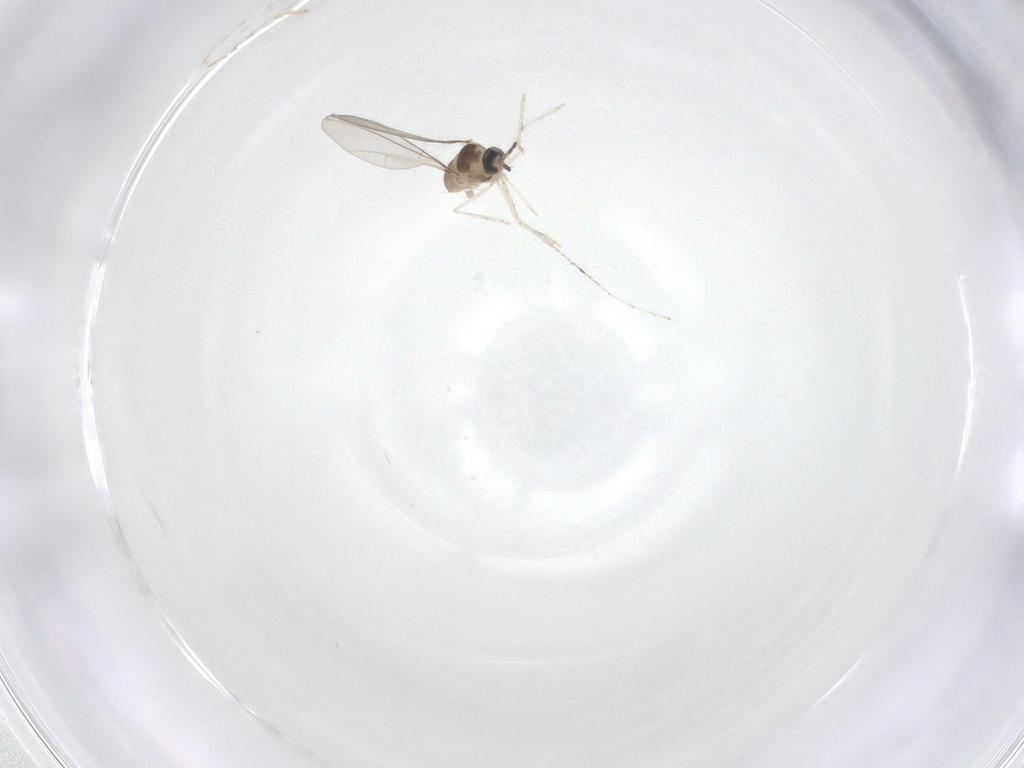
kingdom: Animalia
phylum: Arthropoda
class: Insecta
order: Diptera
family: Cecidomyiidae
